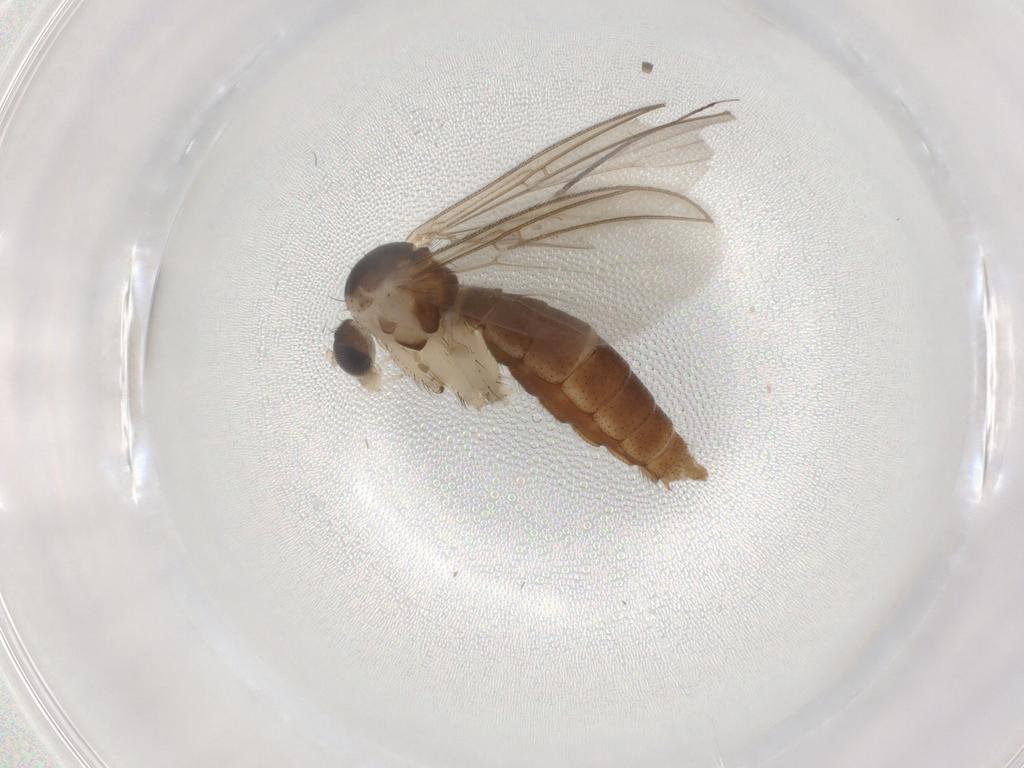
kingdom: Animalia
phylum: Arthropoda
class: Insecta
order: Diptera
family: Mycetophilidae
